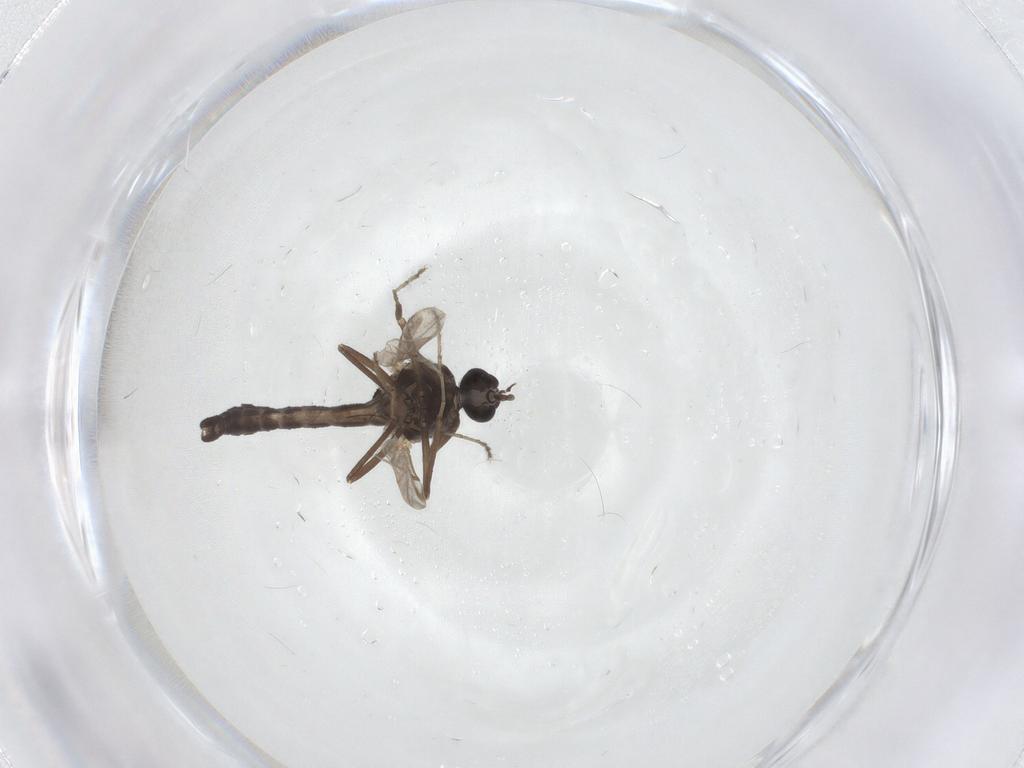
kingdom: Animalia
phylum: Arthropoda
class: Insecta
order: Diptera
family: Ceratopogonidae
